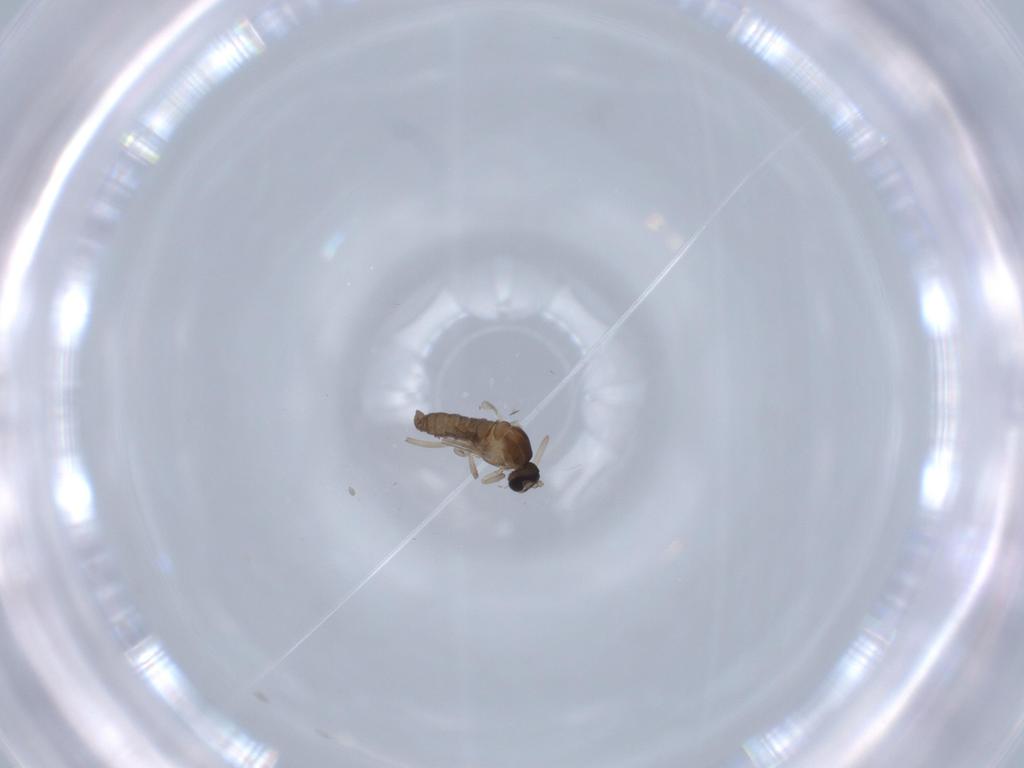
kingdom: Animalia
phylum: Arthropoda
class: Insecta
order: Diptera
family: Cecidomyiidae
